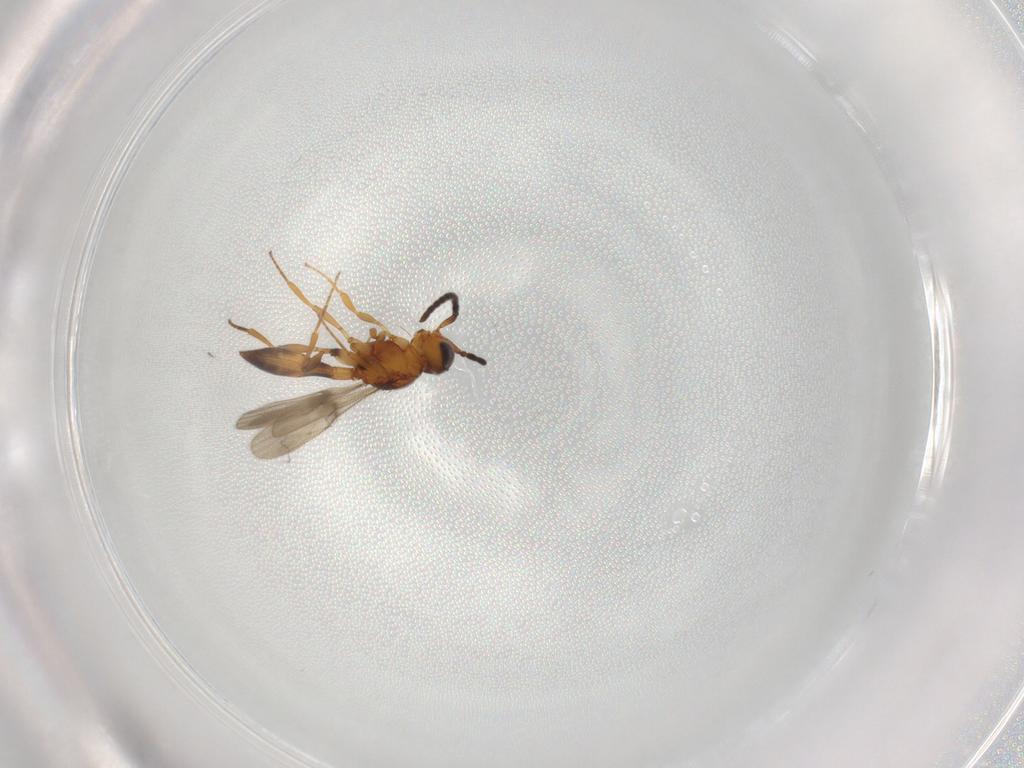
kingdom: Animalia
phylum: Arthropoda
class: Insecta
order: Hymenoptera
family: Scelionidae
